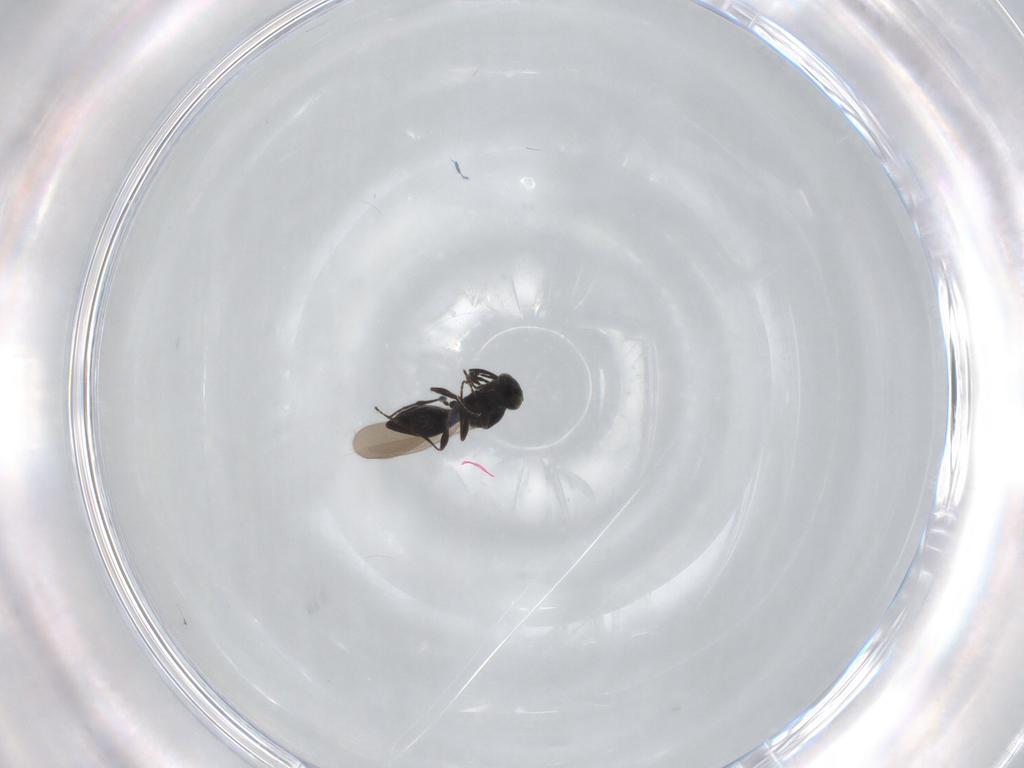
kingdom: Animalia
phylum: Arthropoda
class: Insecta
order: Hymenoptera
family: Platygastridae
